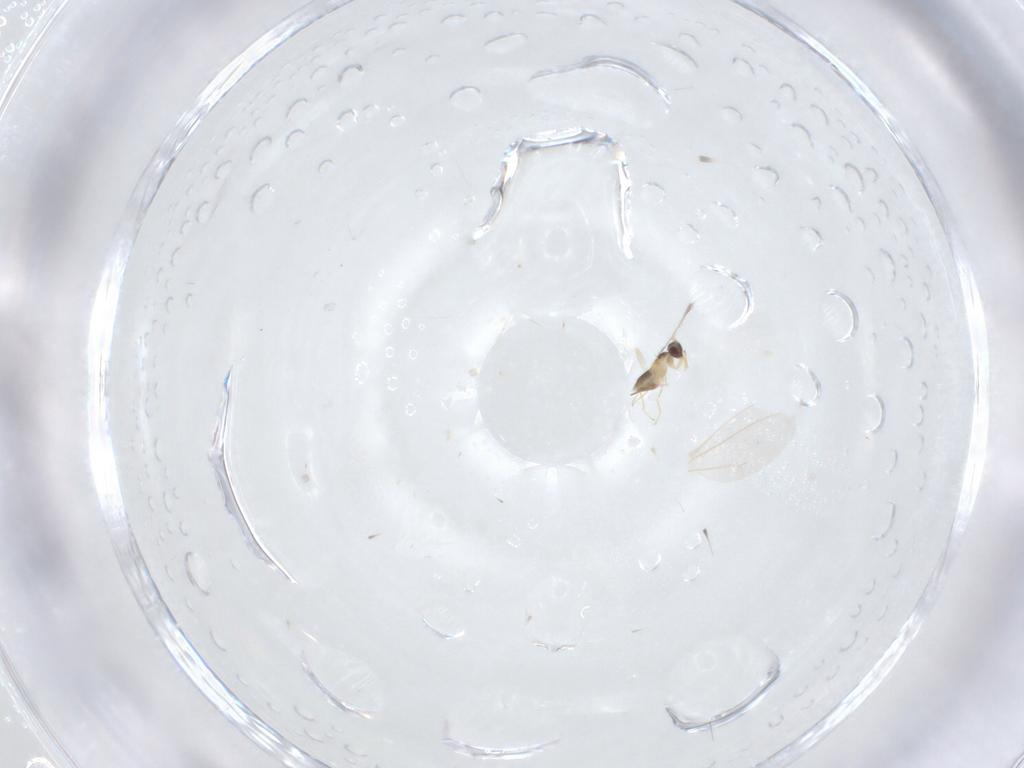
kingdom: Animalia
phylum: Arthropoda
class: Insecta
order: Hymenoptera
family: Mymaridae
